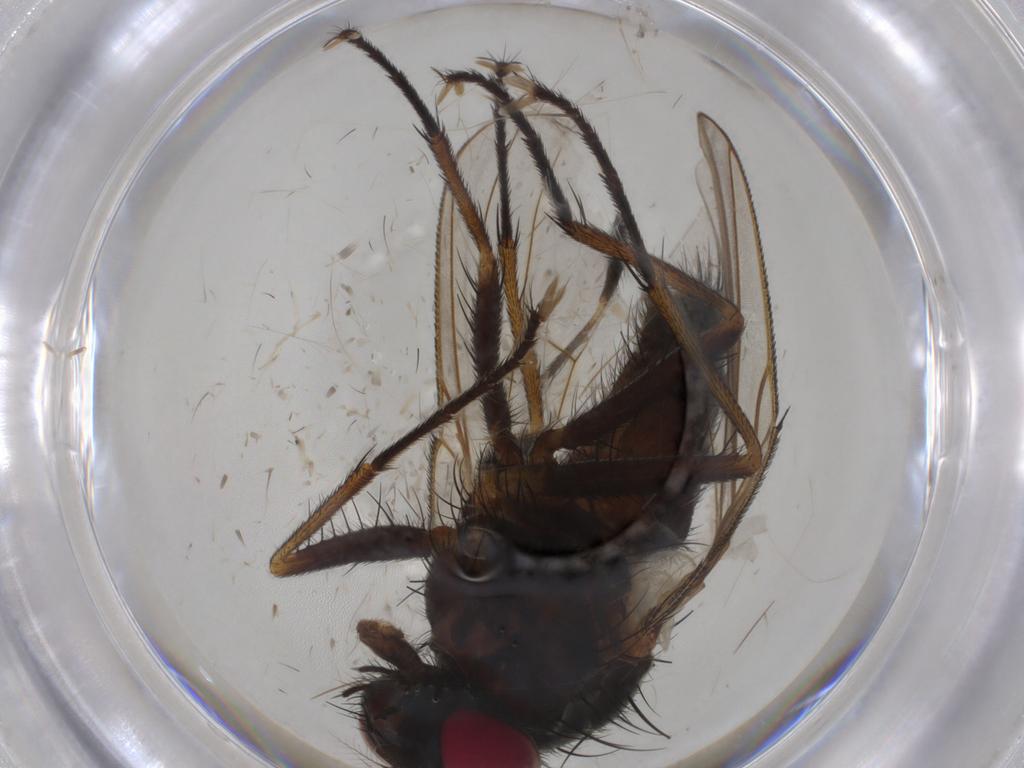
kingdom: Animalia
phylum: Arthropoda
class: Insecta
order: Diptera
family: Muscidae
